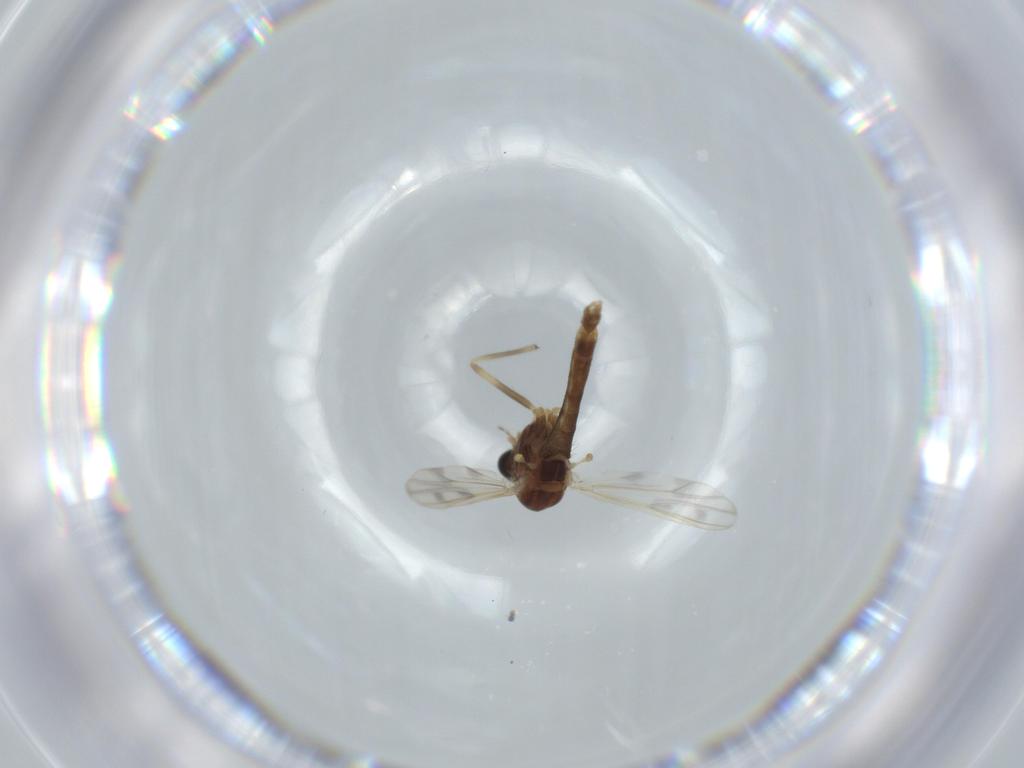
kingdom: Animalia
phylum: Arthropoda
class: Insecta
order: Diptera
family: Chironomidae
